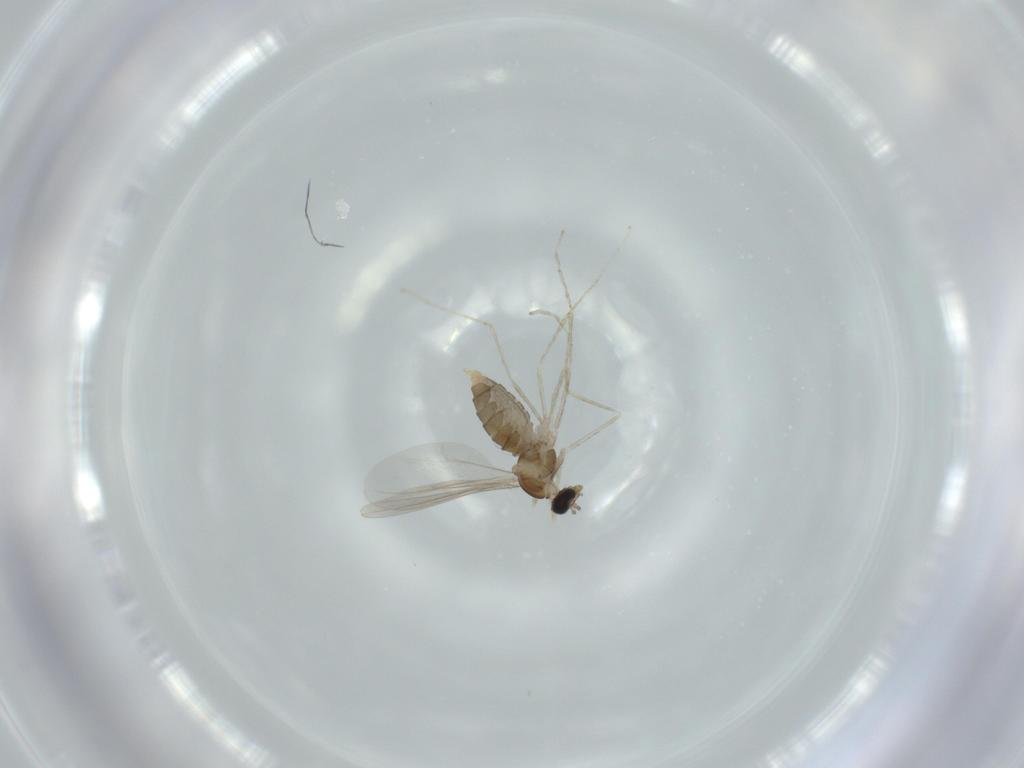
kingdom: Animalia
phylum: Arthropoda
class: Insecta
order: Diptera
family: Cecidomyiidae
